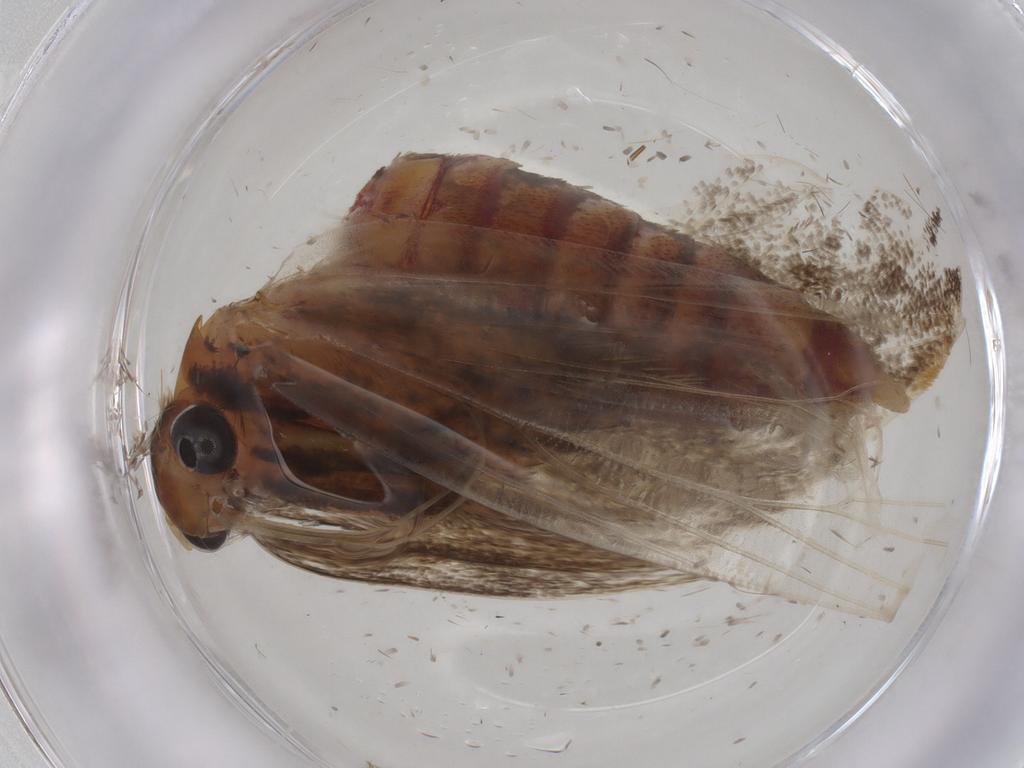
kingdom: Animalia
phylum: Arthropoda
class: Insecta
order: Lepidoptera
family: Lecithoceridae
